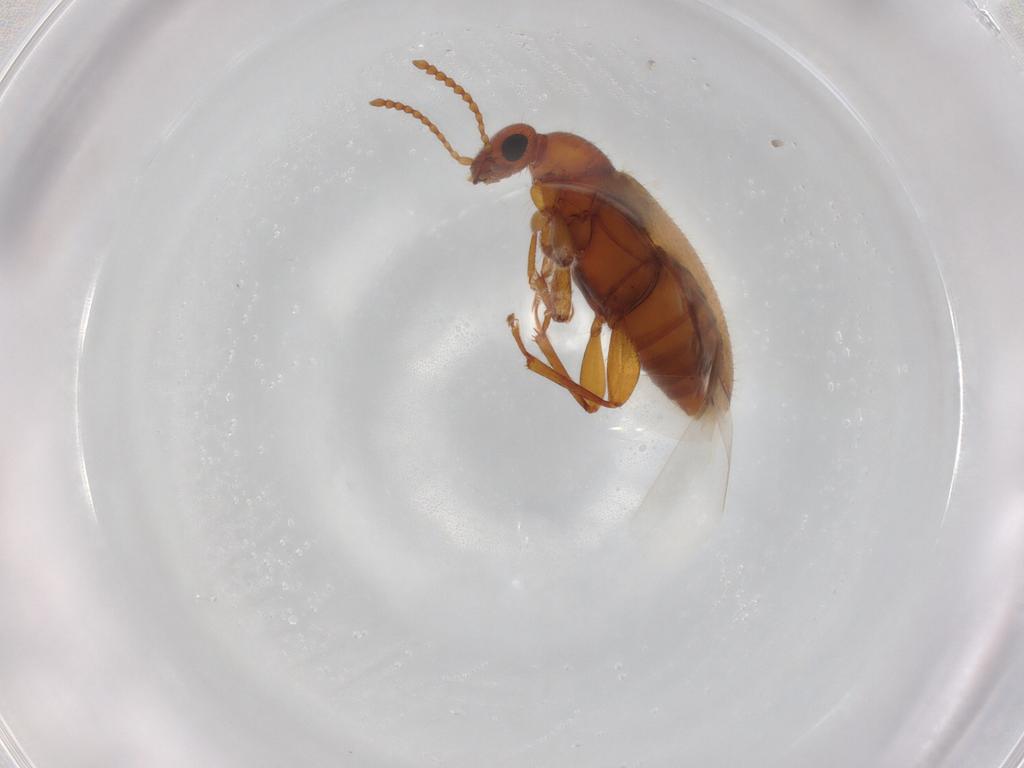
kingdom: Animalia
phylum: Arthropoda
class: Insecta
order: Coleoptera
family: Anthicidae
